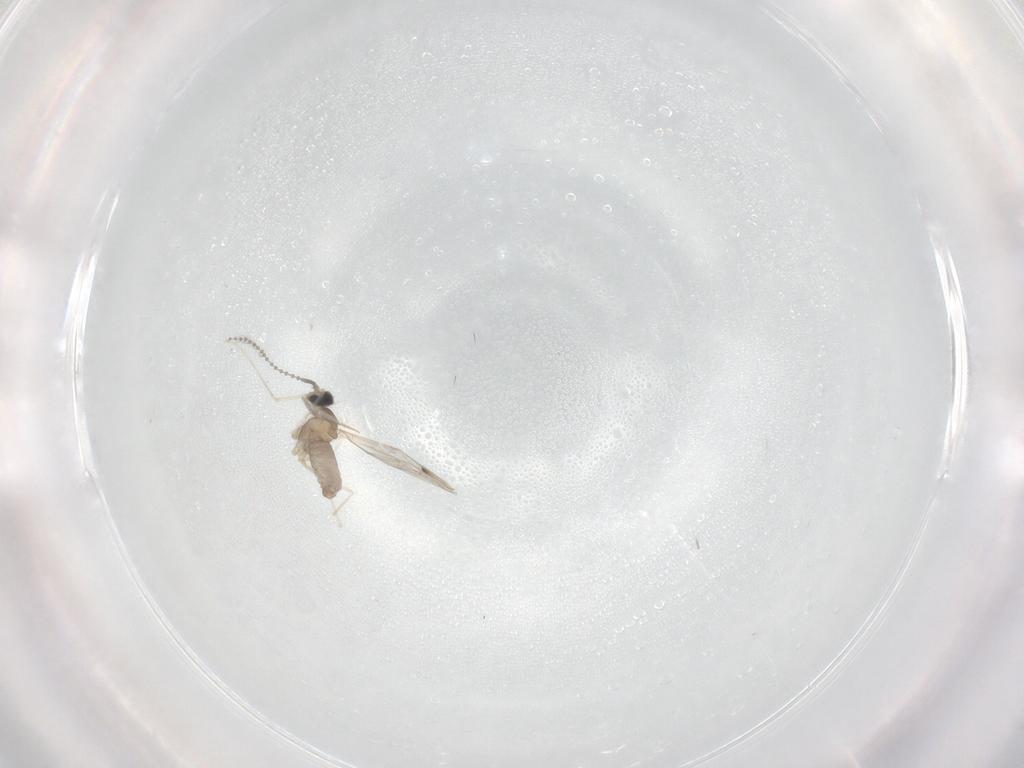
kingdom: Animalia
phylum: Arthropoda
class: Insecta
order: Diptera
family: Cecidomyiidae
